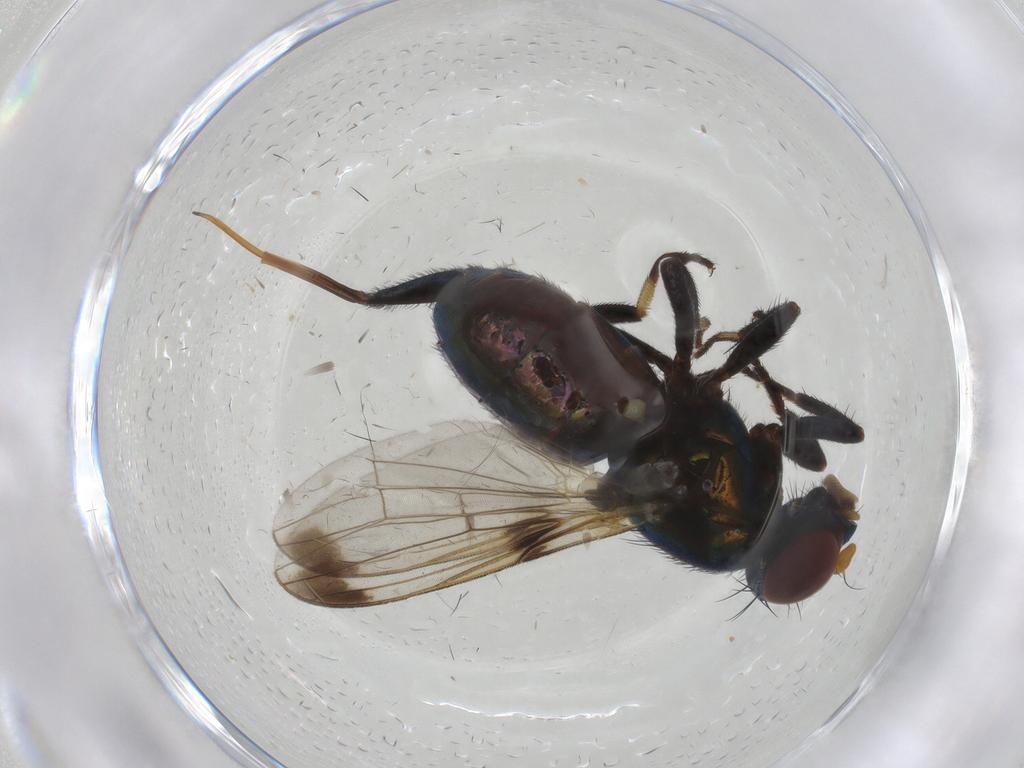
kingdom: Animalia
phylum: Arthropoda
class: Insecta
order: Diptera
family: Ulidiidae
